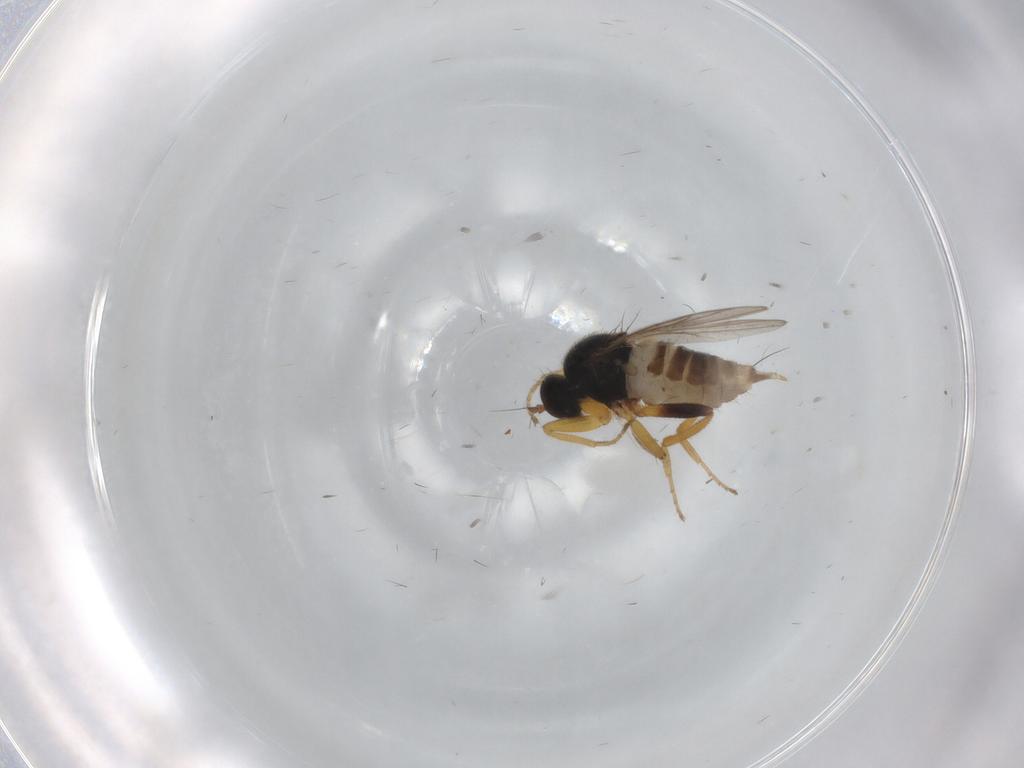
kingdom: Animalia
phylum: Arthropoda
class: Insecta
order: Diptera
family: Hybotidae
